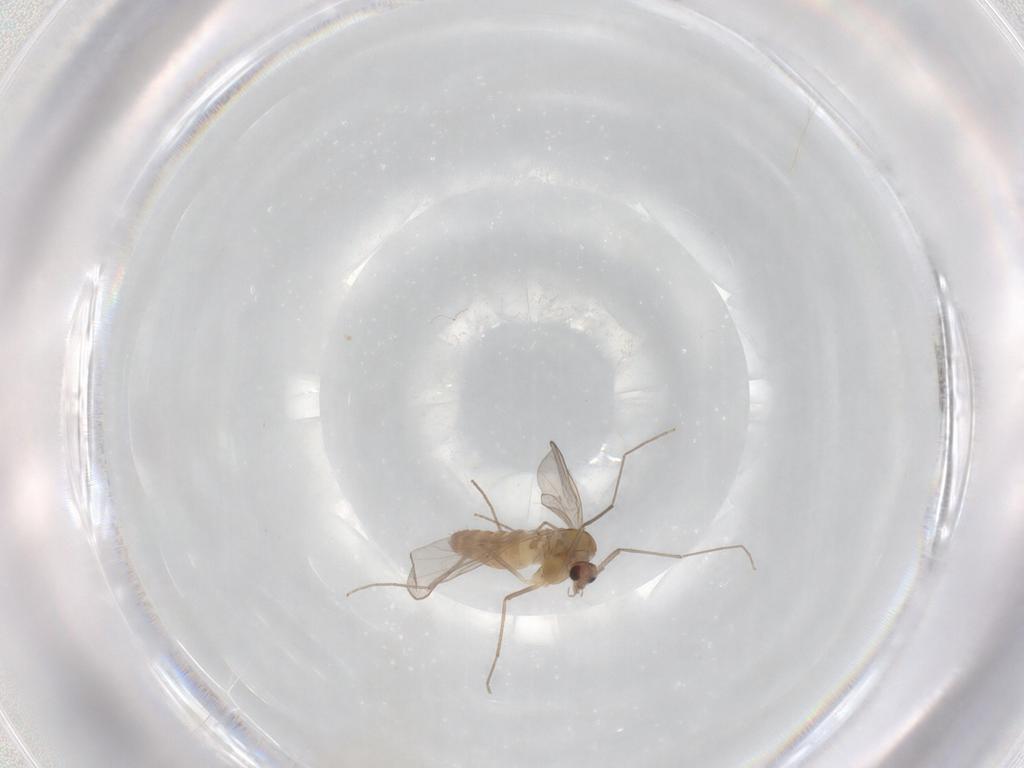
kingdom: Animalia
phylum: Arthropoda
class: Insecta
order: Diptera
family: Chironomidae
